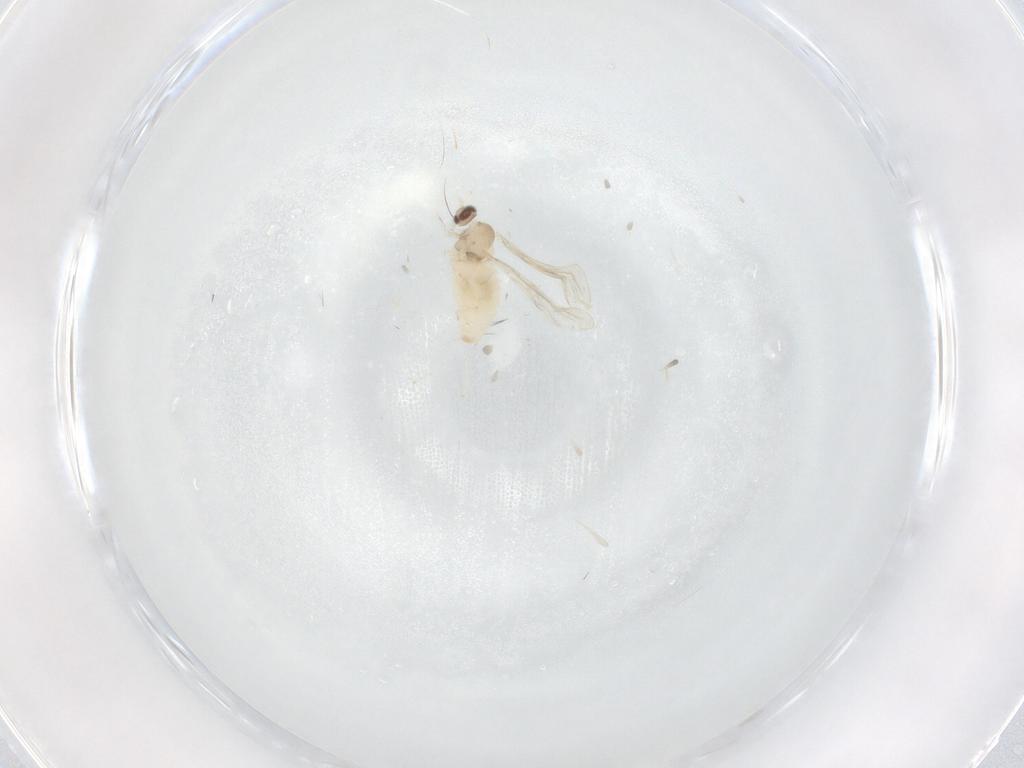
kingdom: Animalia
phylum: Arthropoda
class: Insecta
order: Diptera
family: Cecidomyiidae
